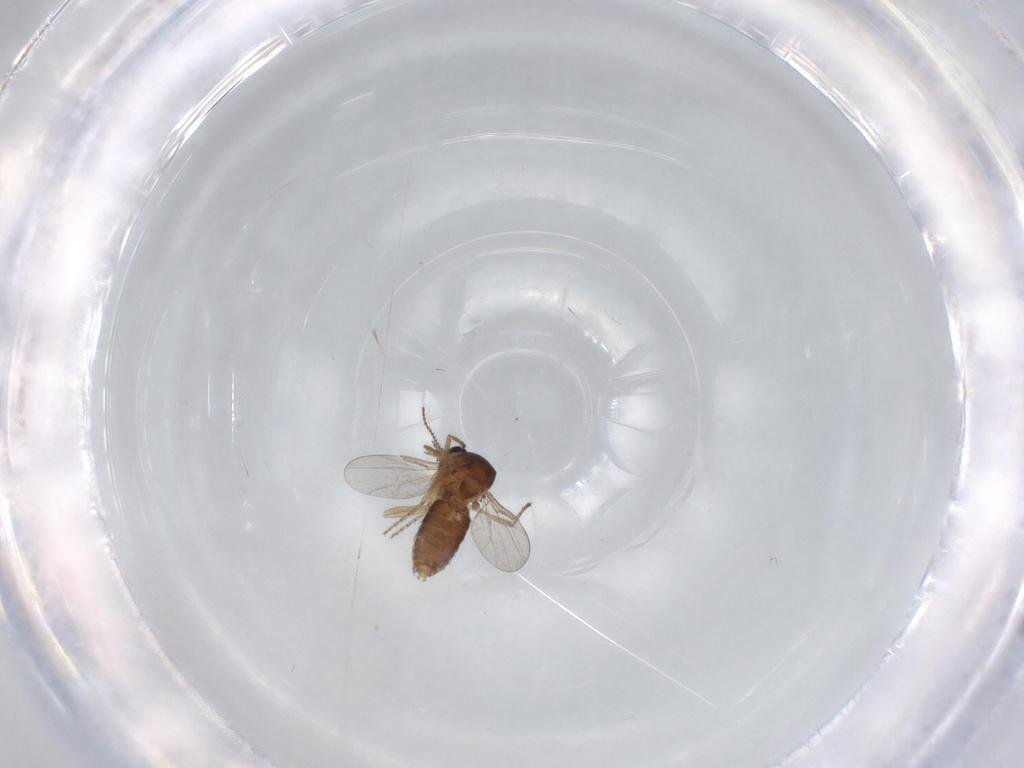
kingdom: Animalia
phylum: Arthropoda
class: Insecta
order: Diptera
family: Ceratopogonidae
